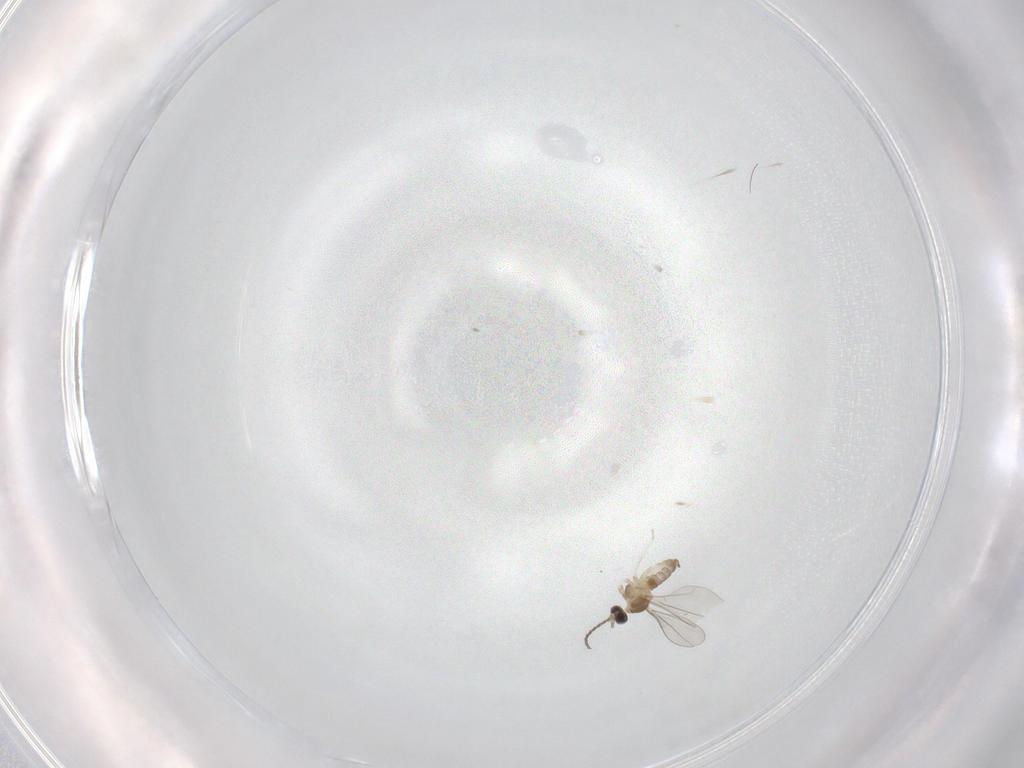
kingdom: Animalia
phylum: Arthropoda
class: Insecta
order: Diptera
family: Cecidomyiidae
